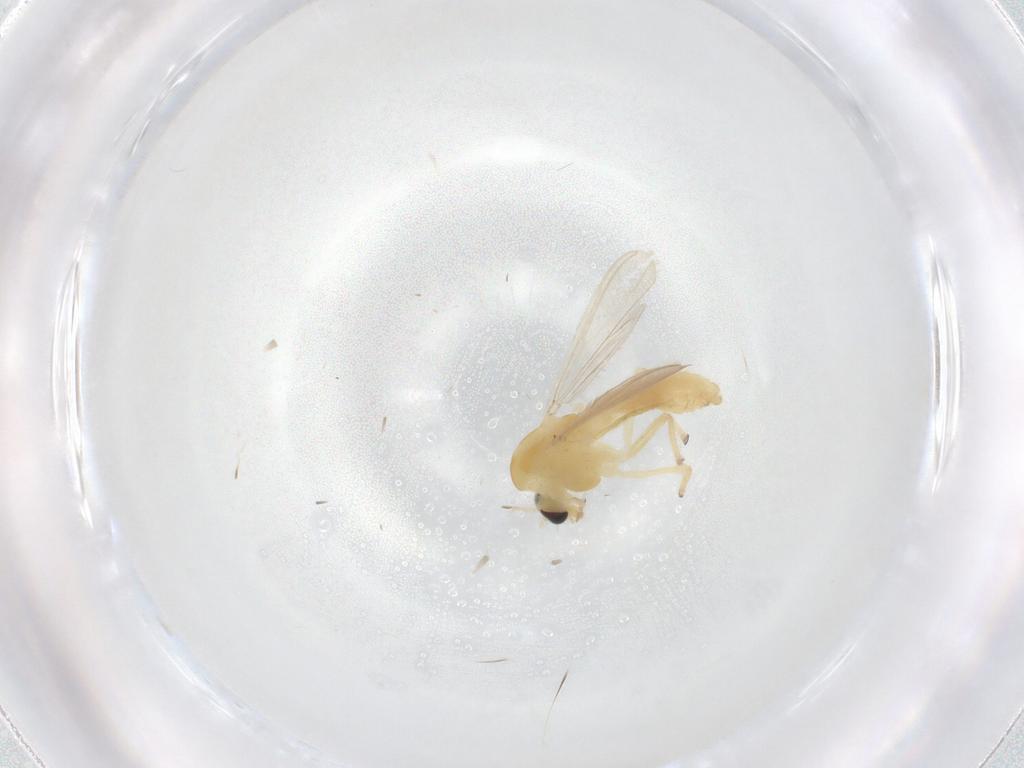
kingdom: Animalia
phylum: Arthropoda
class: Insecta
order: Diptera
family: Chironomidae
